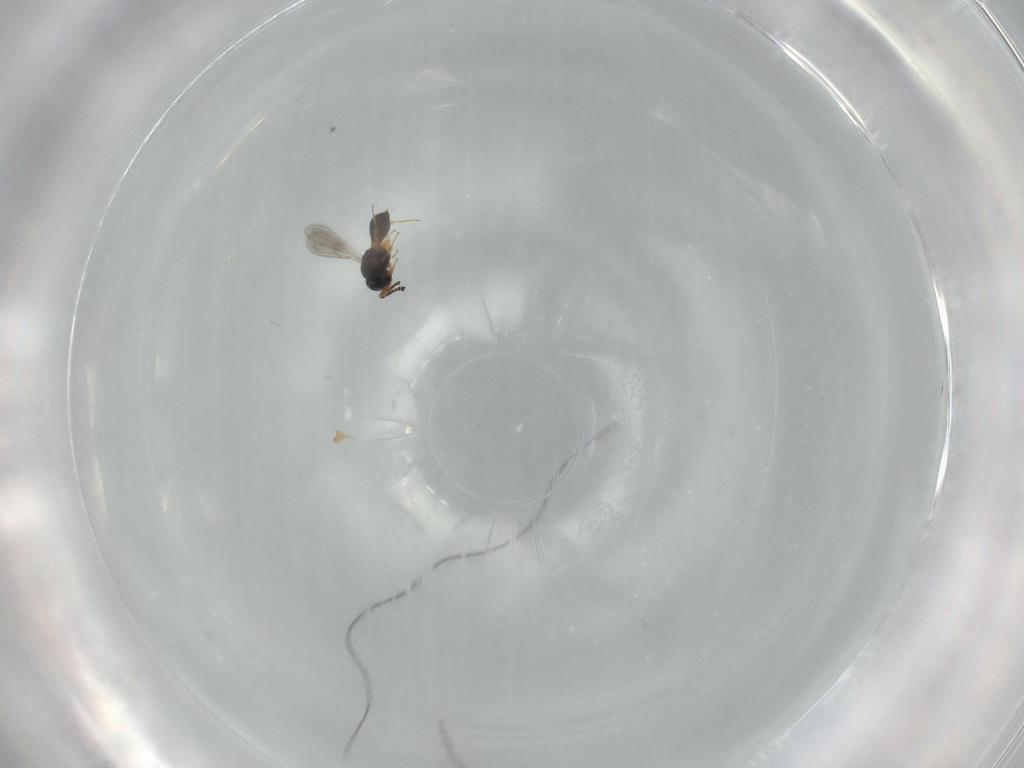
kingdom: Animalia
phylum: Arthropoda
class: Insecta
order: Hymenoptera
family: Scelionidae
